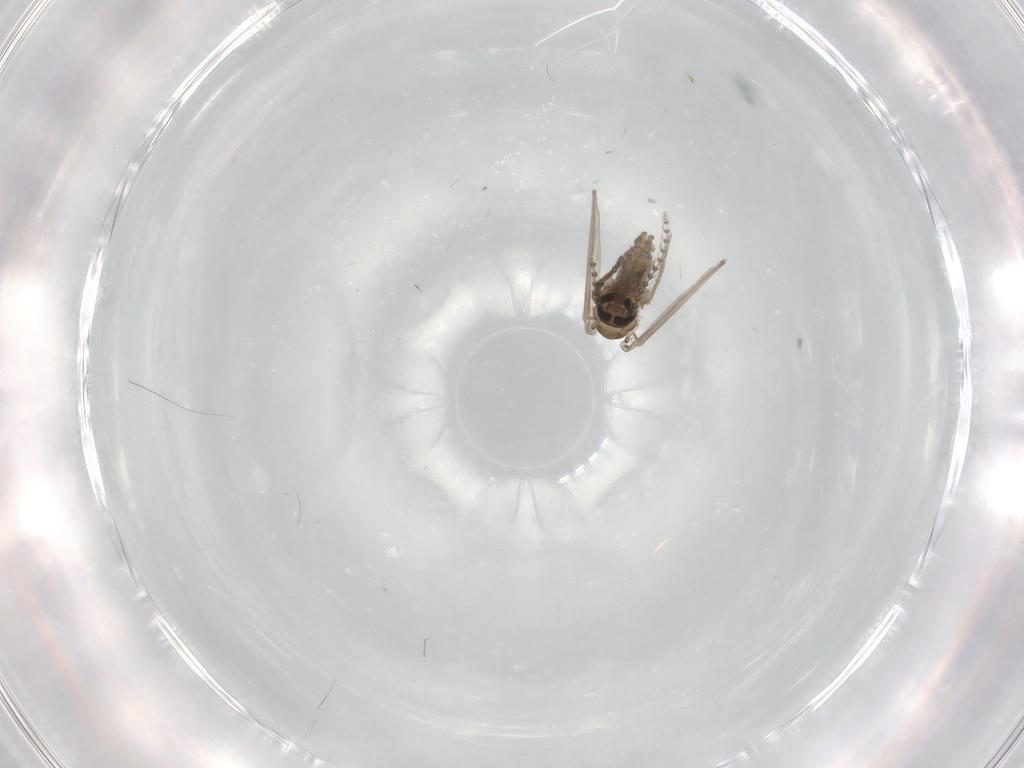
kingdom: Animalia
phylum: Arthropoda
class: Insecta
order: Diptera
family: Psychodidae
